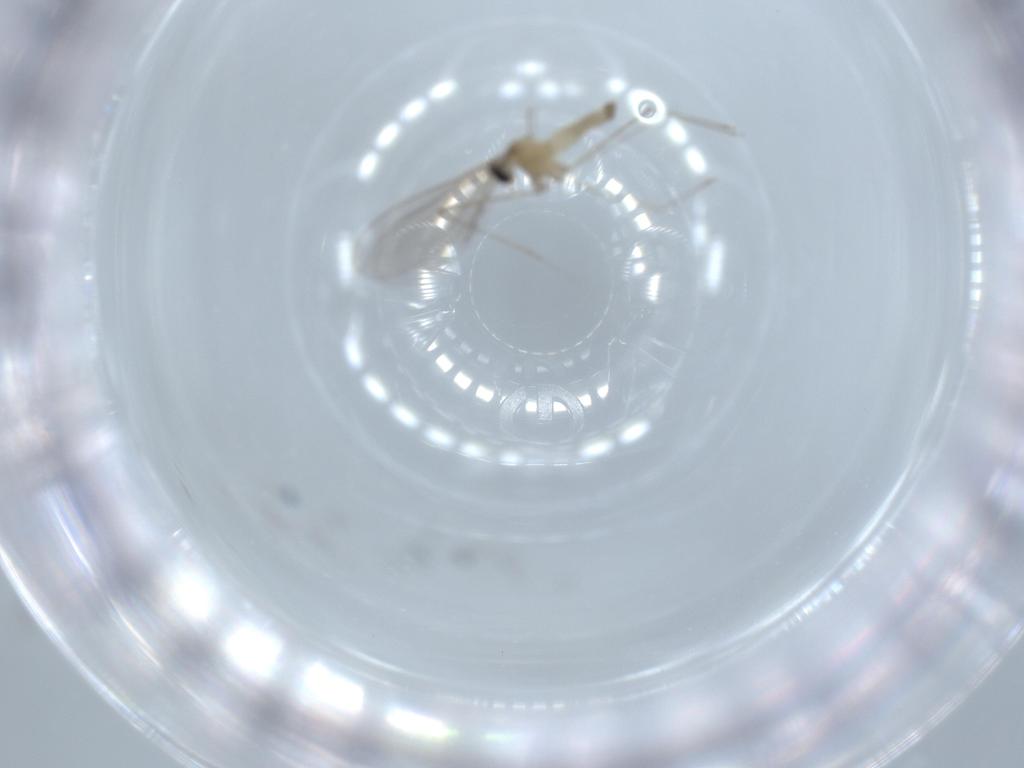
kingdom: Animalia
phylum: Arthropoda
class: Insecta
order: Diptera
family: Cecidomyiidae
